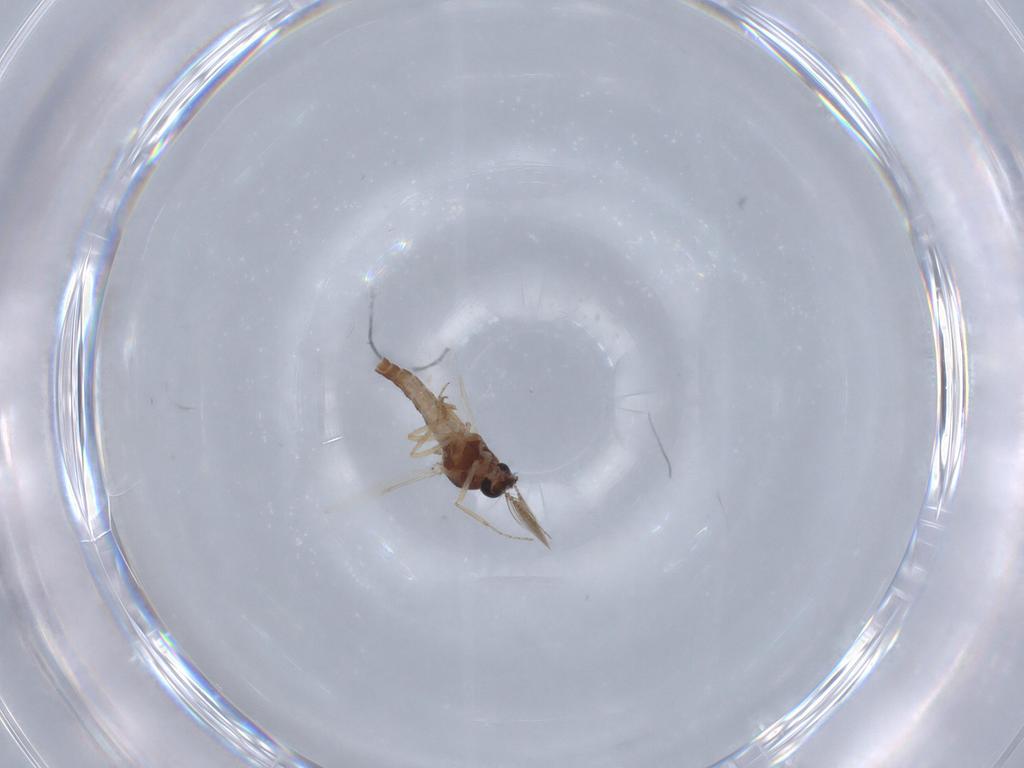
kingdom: Animalia
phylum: Arthropoda
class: Insecta
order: Diptera
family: Ceratopogonidae
